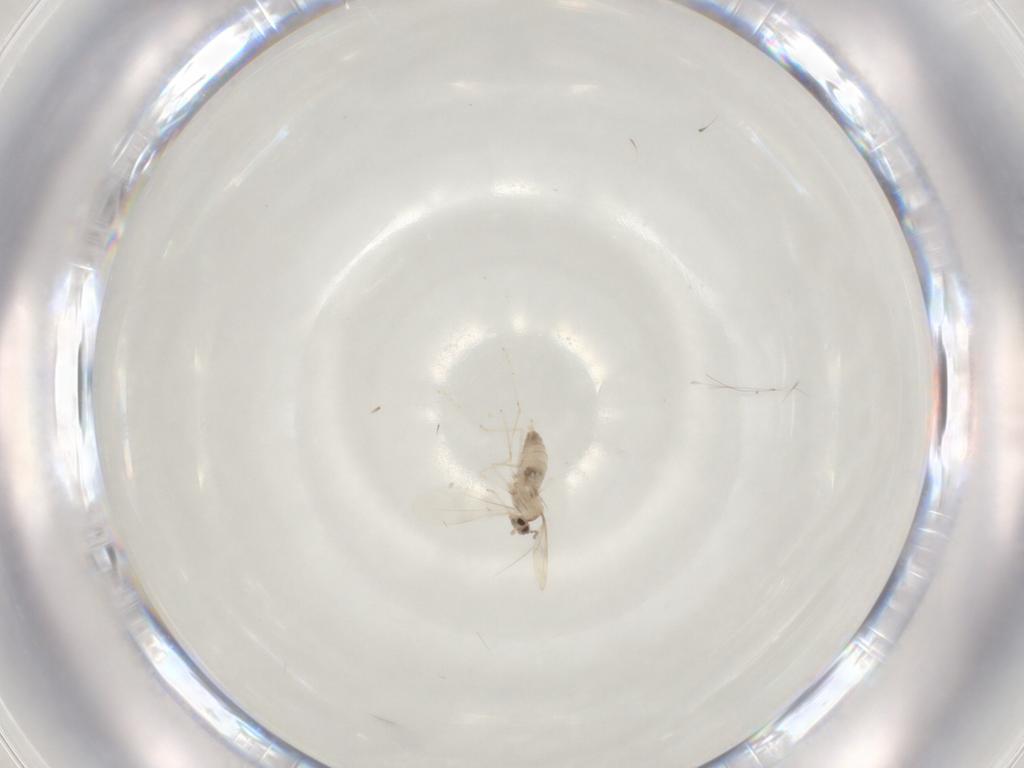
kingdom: Animalia
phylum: Arthropoda
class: Insecta
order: Diptera
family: Cecidomyiidae
